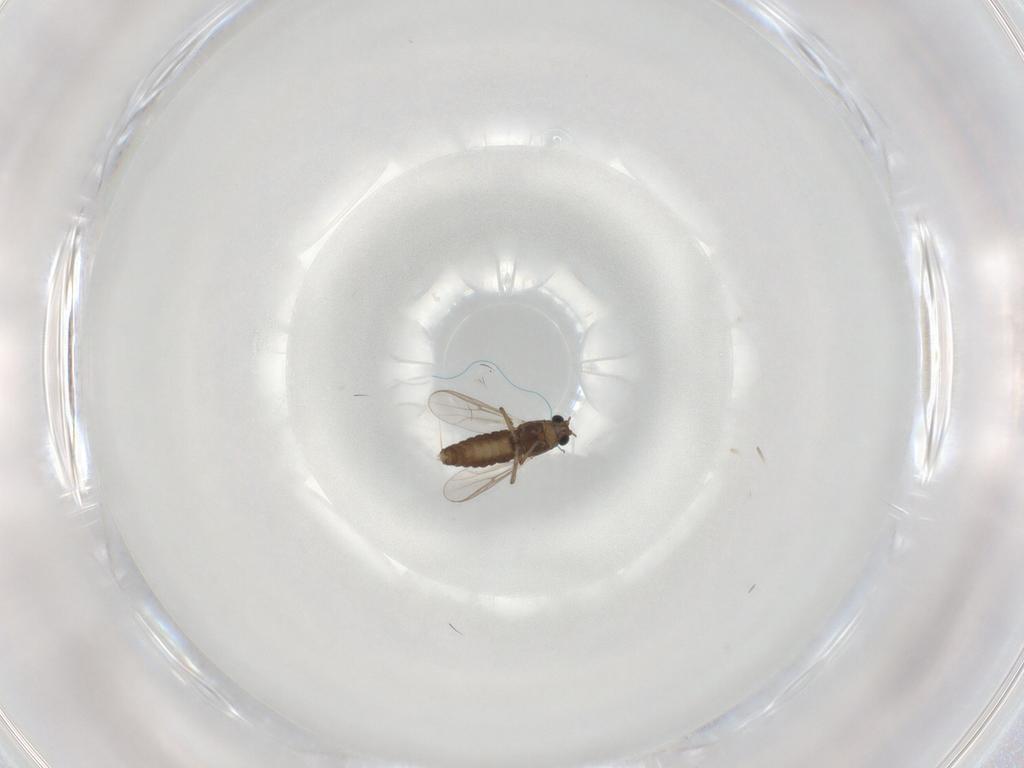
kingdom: Animalia
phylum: Arthropoda
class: Insecta
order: Diptera
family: Chironomidae
